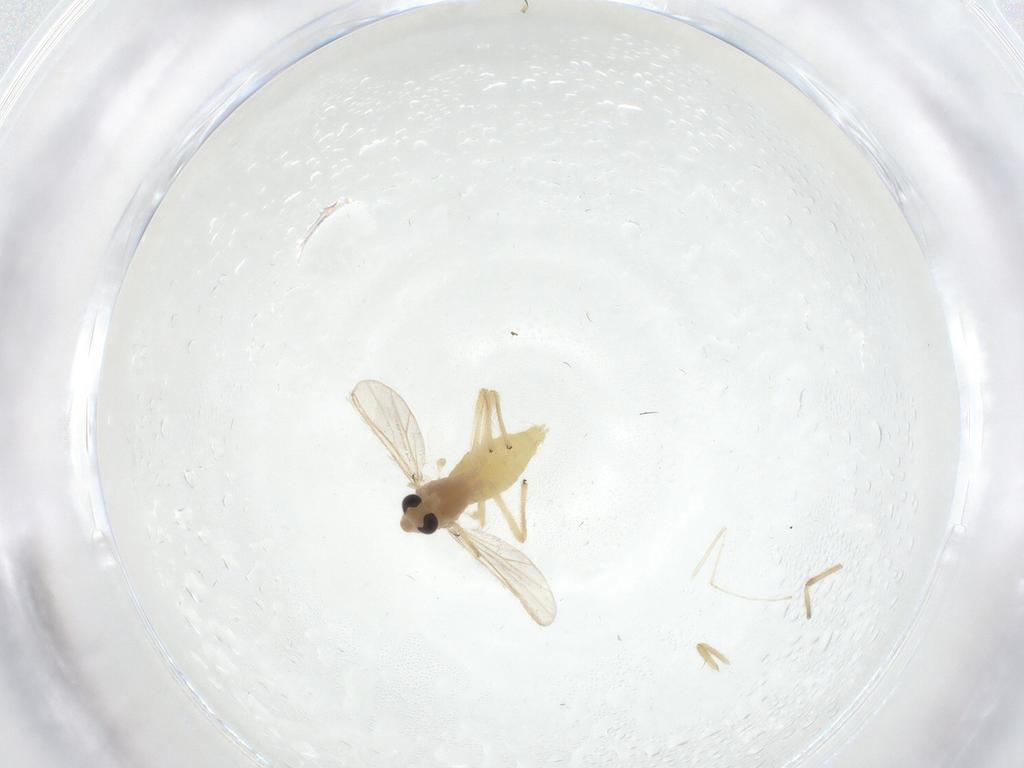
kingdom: Animalia
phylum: Arthropoda
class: Insecta
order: Diptera
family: Chironomidae
